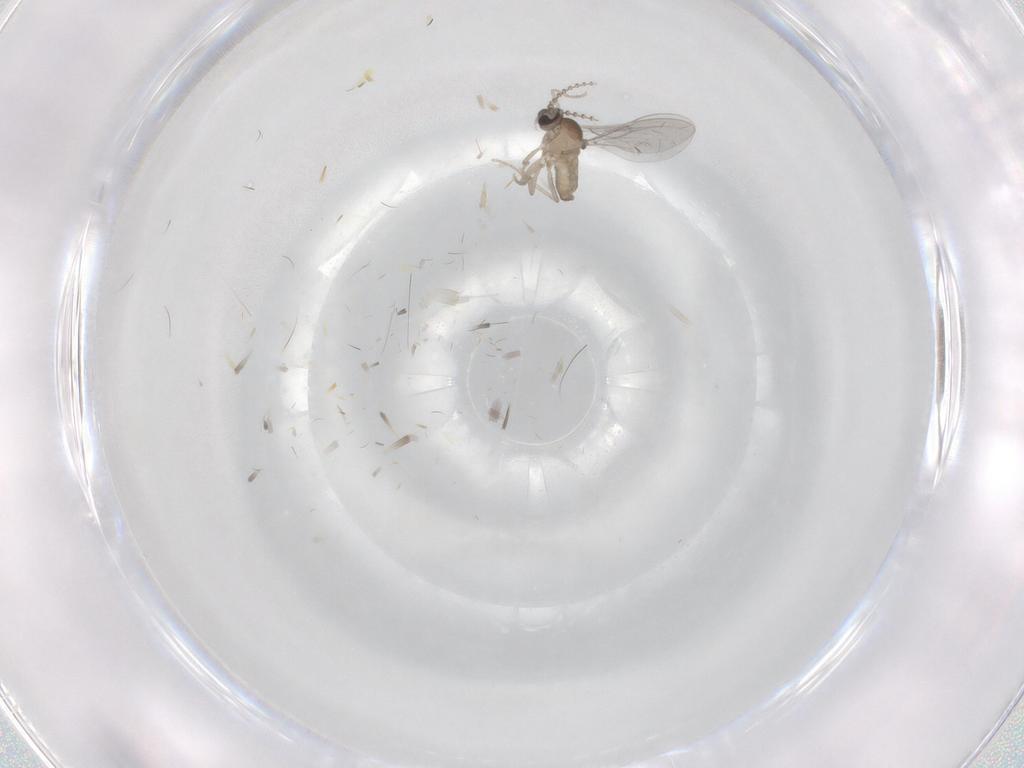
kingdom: Animalia
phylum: Arthropoda
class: Insecta
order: Diptera
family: Cecidomyiidae
